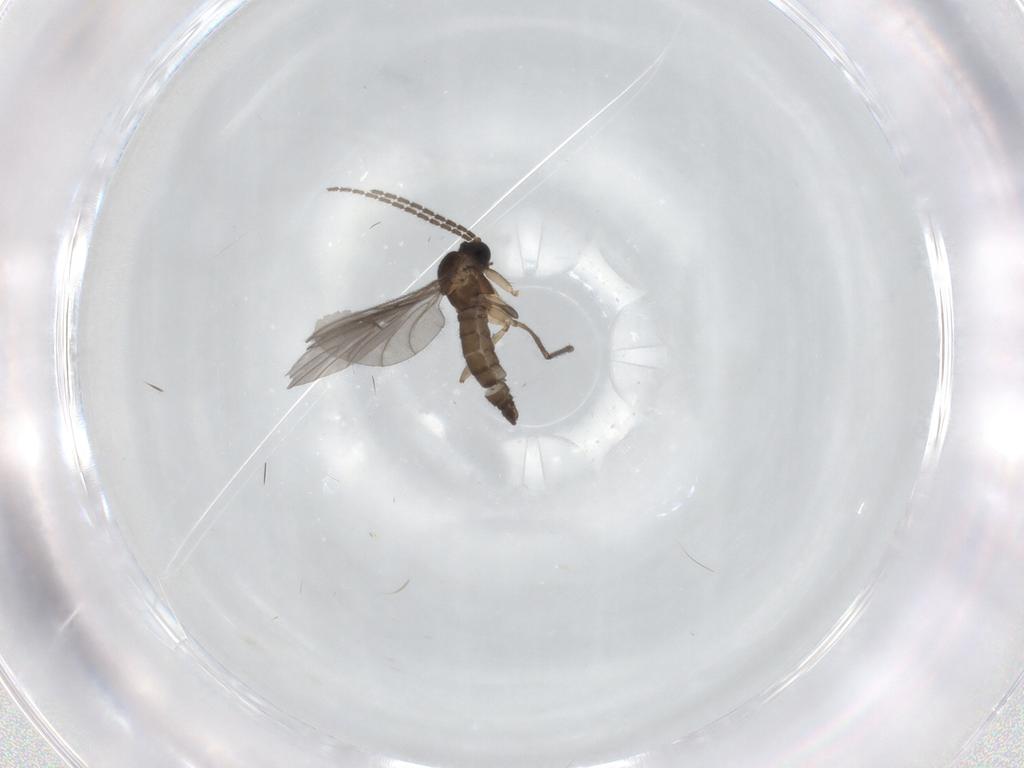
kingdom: Animalia
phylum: Arthropoda
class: Insecta
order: Diptera
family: Sciaridae
